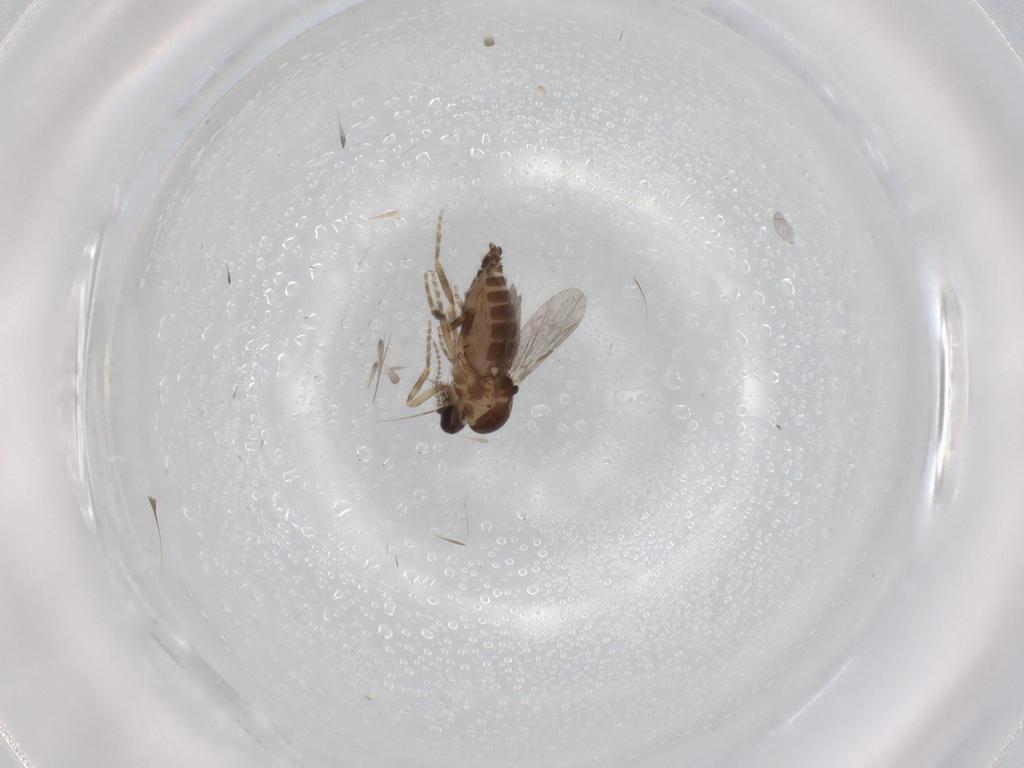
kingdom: Animalia
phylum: Arthropoda
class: Insecta
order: Diptera
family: Ceratopogonidae
